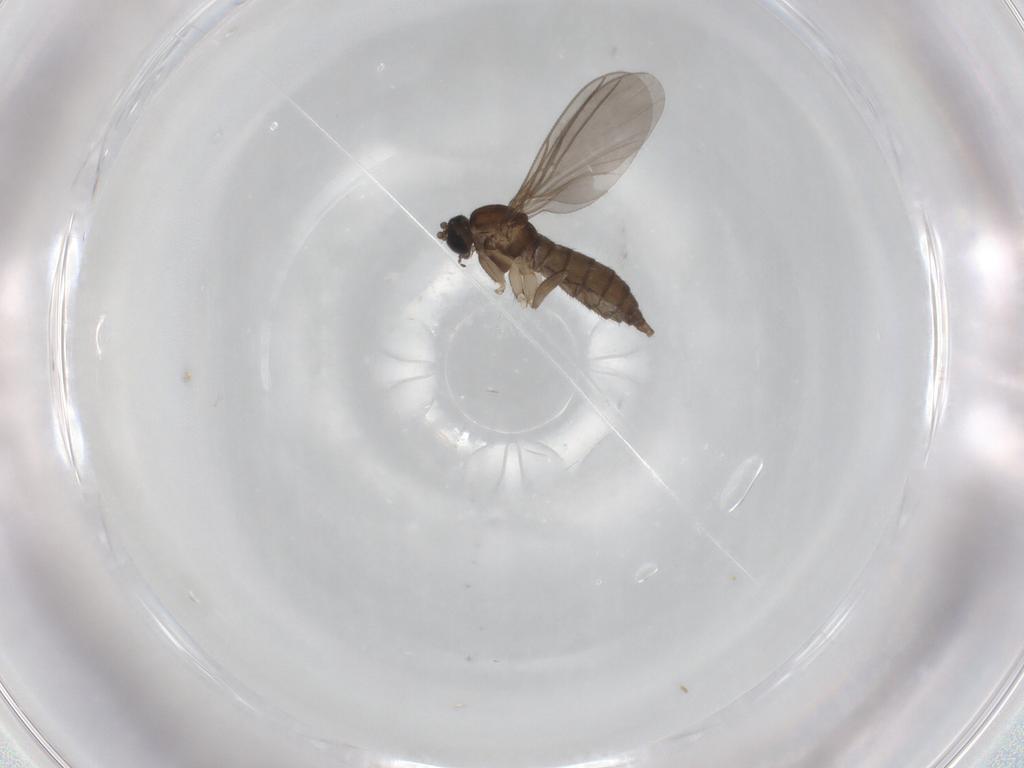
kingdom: Animalia
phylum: Arthropoda
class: Insecta
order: Diptera
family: Sciaridae
